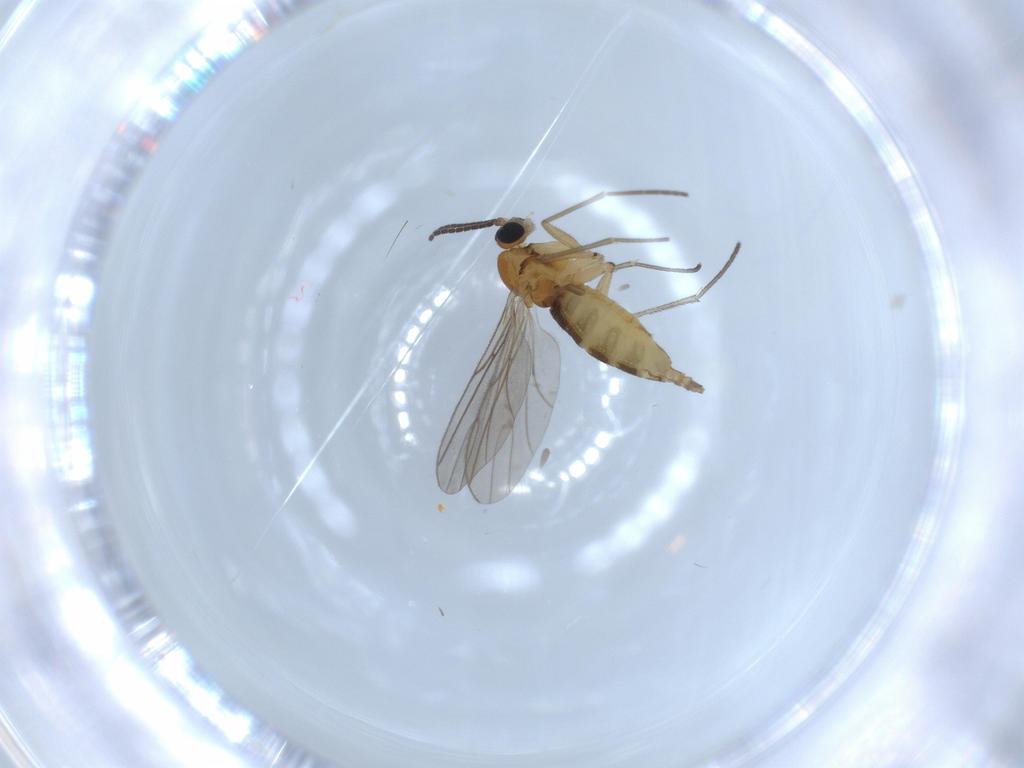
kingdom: Animalia
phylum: Arthropoda
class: Insecta
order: Diptera
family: Sciaridae
